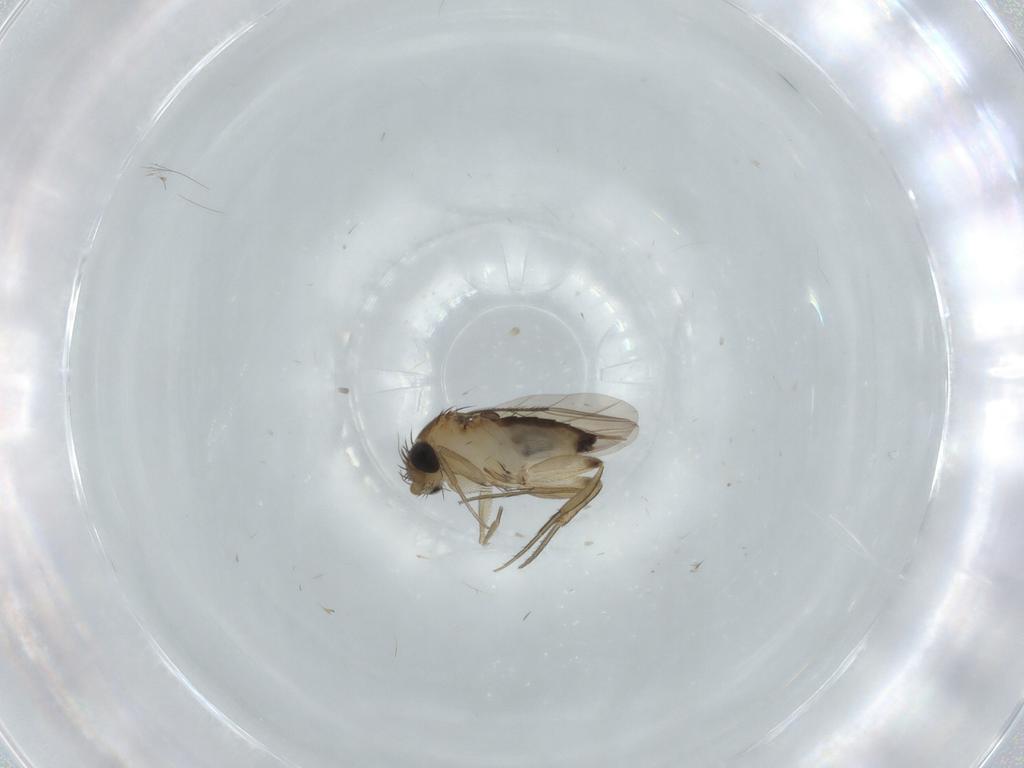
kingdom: Animalia
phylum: Arthropoda
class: Insecta
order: Diptera
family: Phoridae
